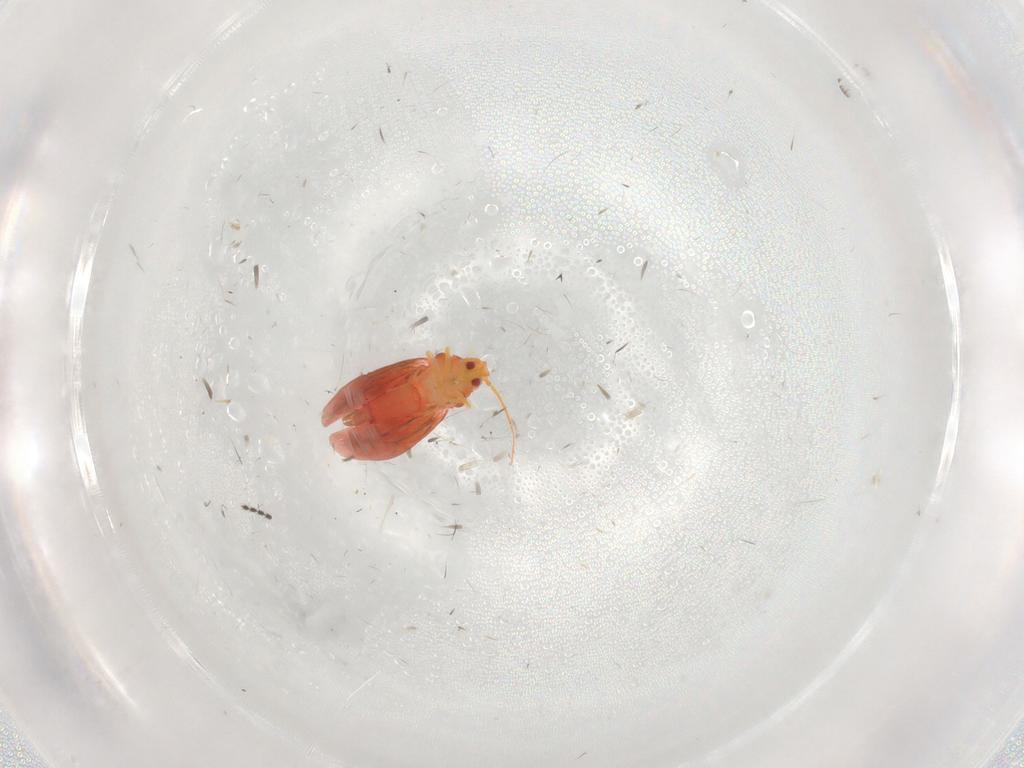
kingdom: Animalia
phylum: Arthropoda
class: Insecta
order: Hemiptera
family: Cicadellidae
